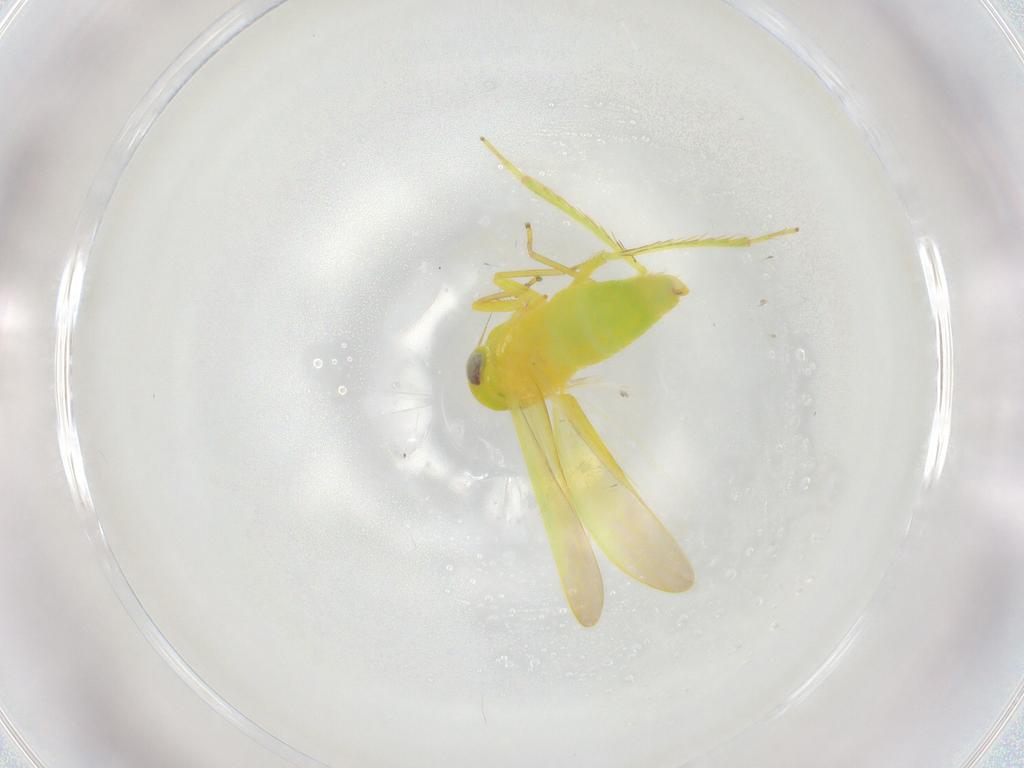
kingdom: Animalia
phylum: Arthropoda
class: Insecta
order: Hemiptera
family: Cicadellidae
